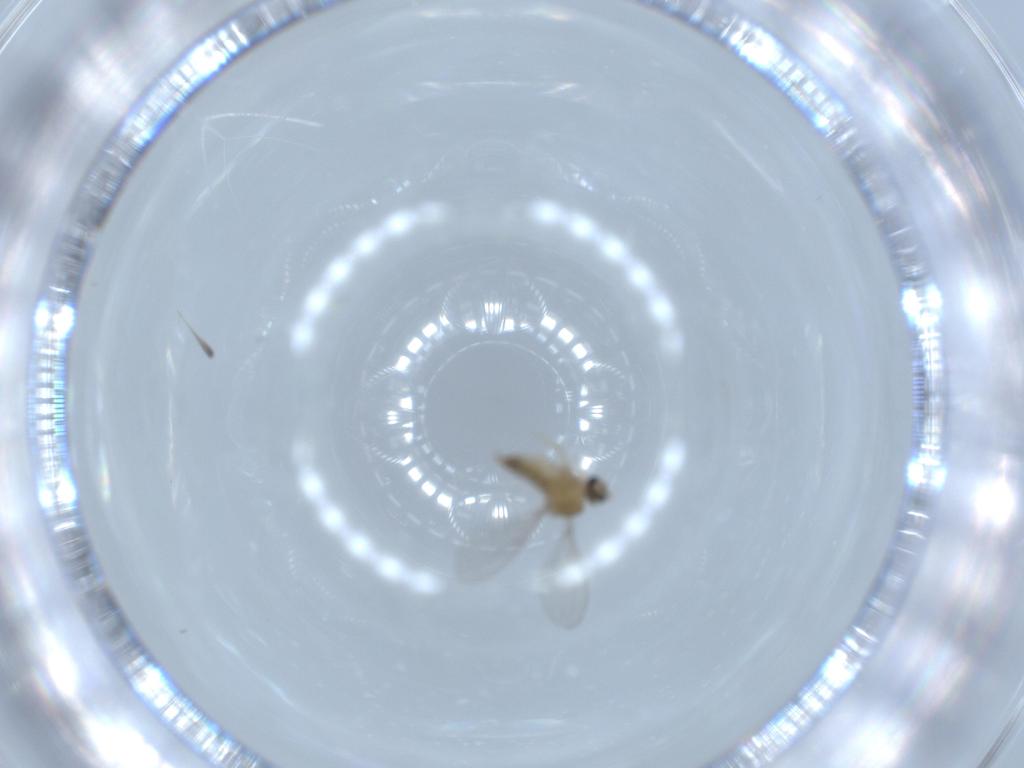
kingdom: Animalia
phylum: Arthropoda
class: Insecta
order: Diptera
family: Cecidomyiidae
